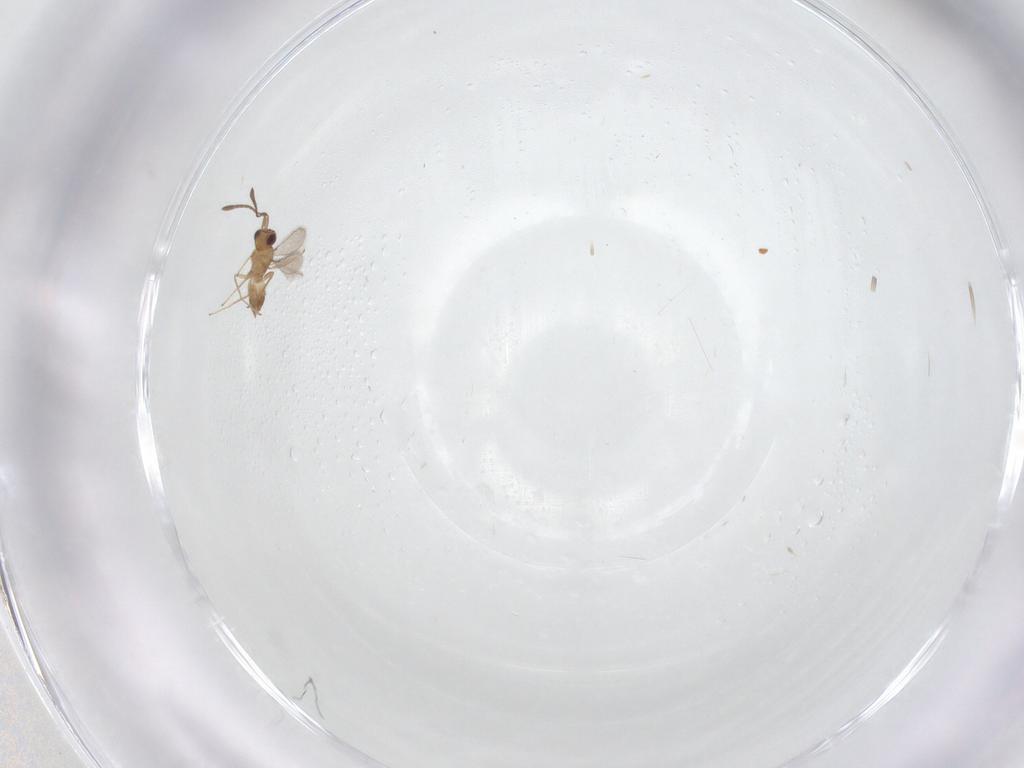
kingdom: Animalia
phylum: Arthropoda
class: Insecta
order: Hymenoptera
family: Mymaridae
